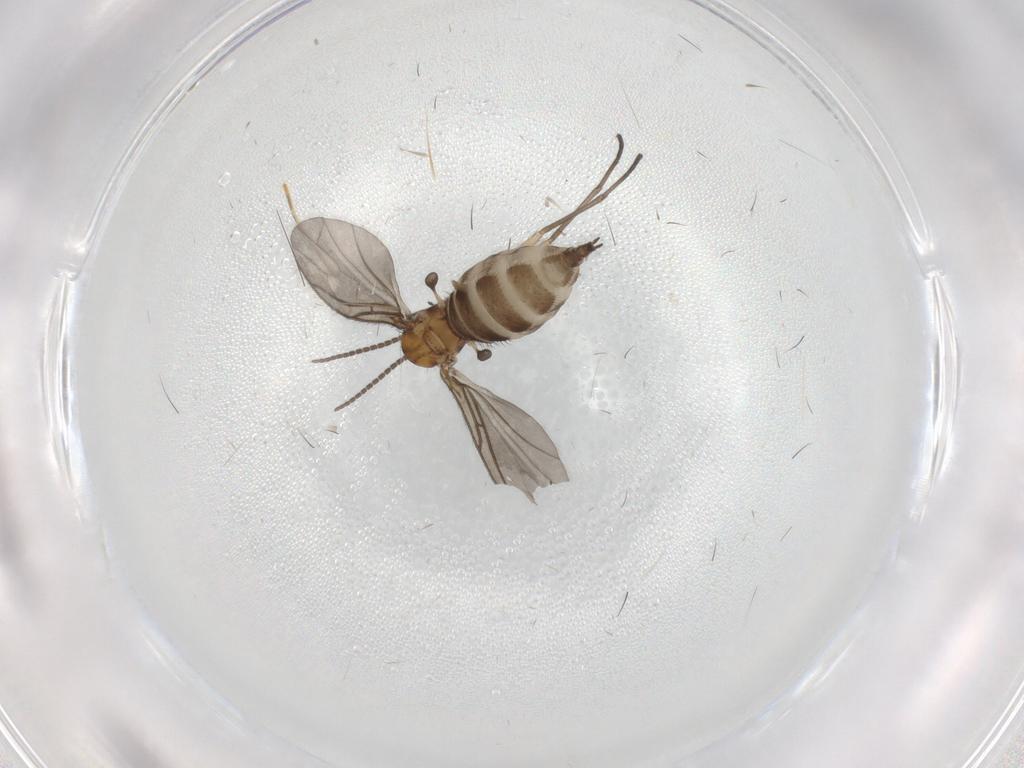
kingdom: Animalia
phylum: Arthropoda
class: Insecta
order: Diptera
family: Sciaridae
